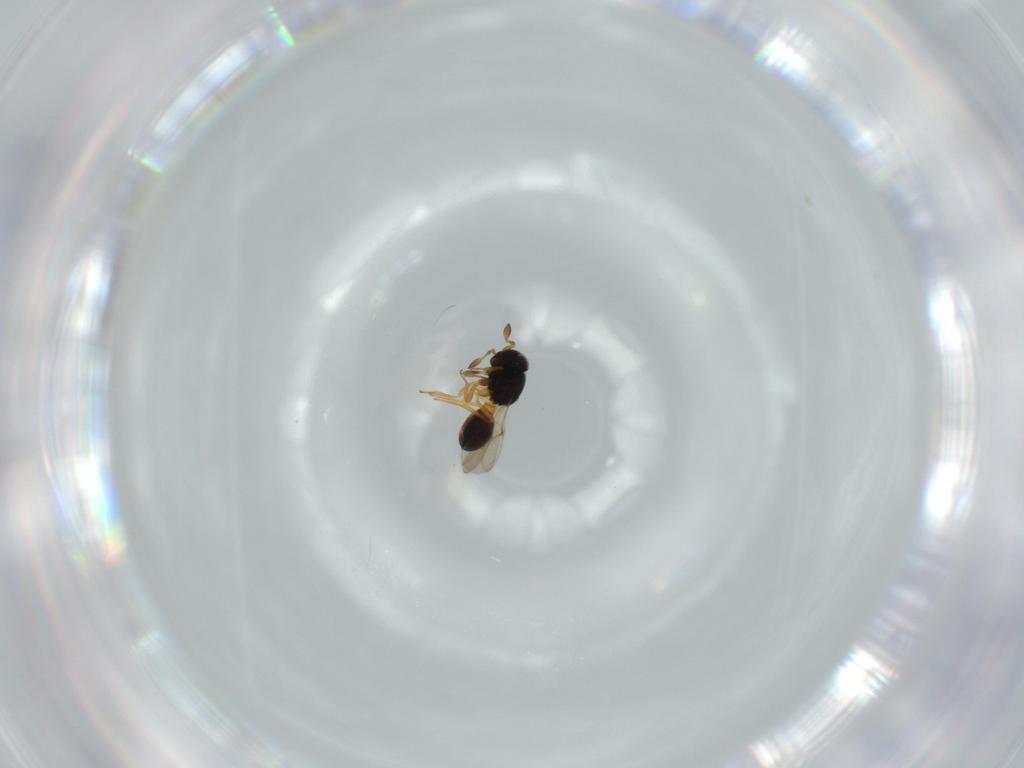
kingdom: Animalia
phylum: Arthropoda
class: Insecta
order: Hymenoptera
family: Scelionidae
